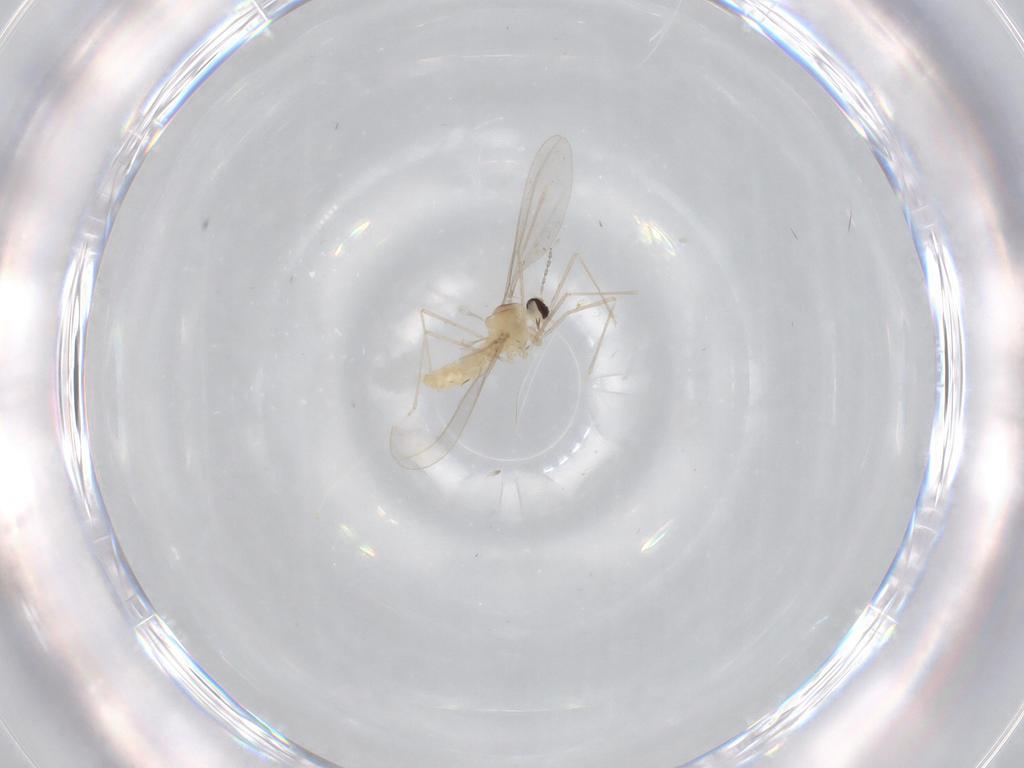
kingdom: Animalia
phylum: Arthropoda
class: Insecta
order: Diptera
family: Cecidomyiidae
